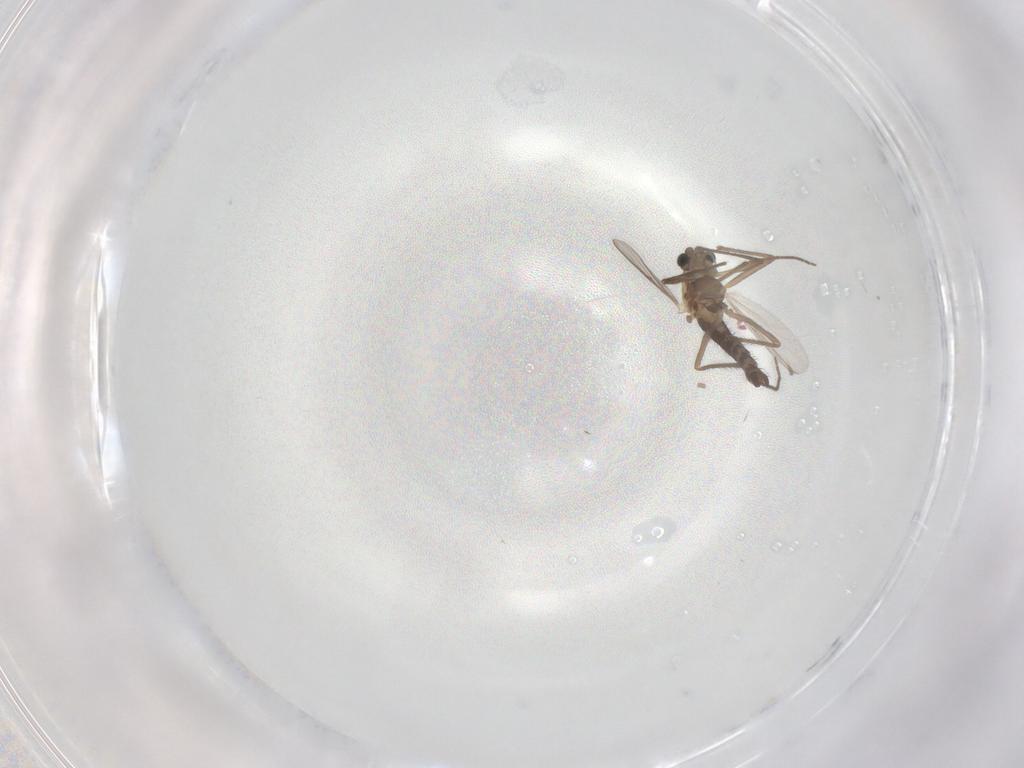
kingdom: Animalia
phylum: Arthropoda
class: Insecta
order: Diptera
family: Chironomidae
